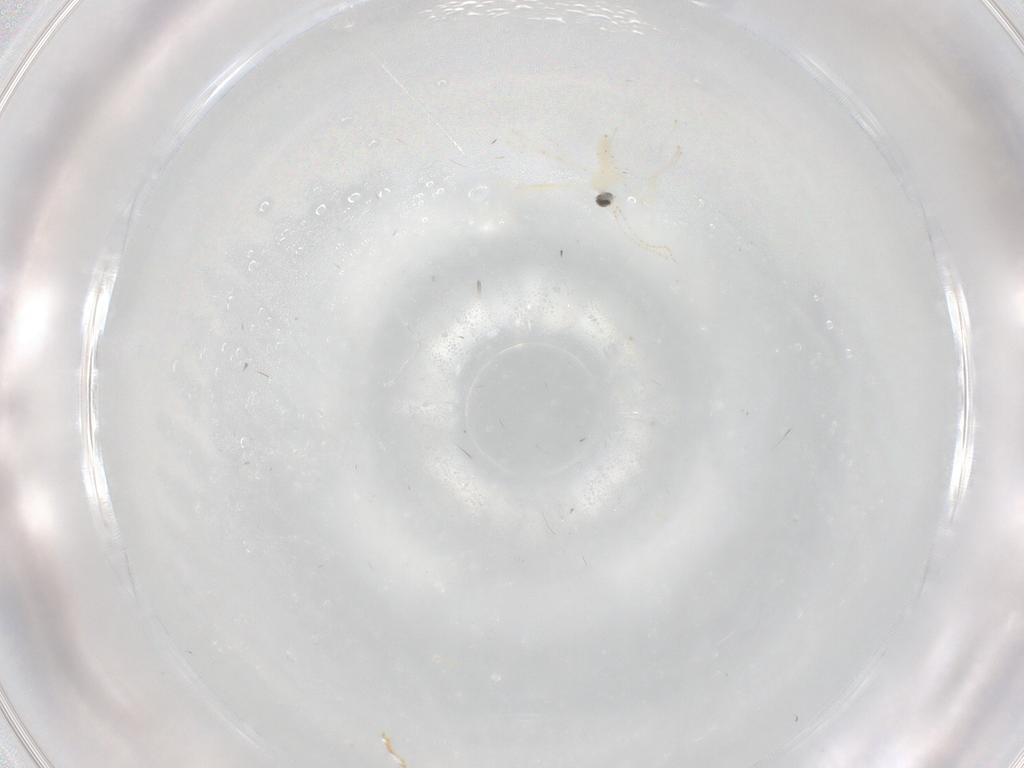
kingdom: Animalia
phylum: Arthropoda
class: Insecta
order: Diptera
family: Cecidomyiidae
